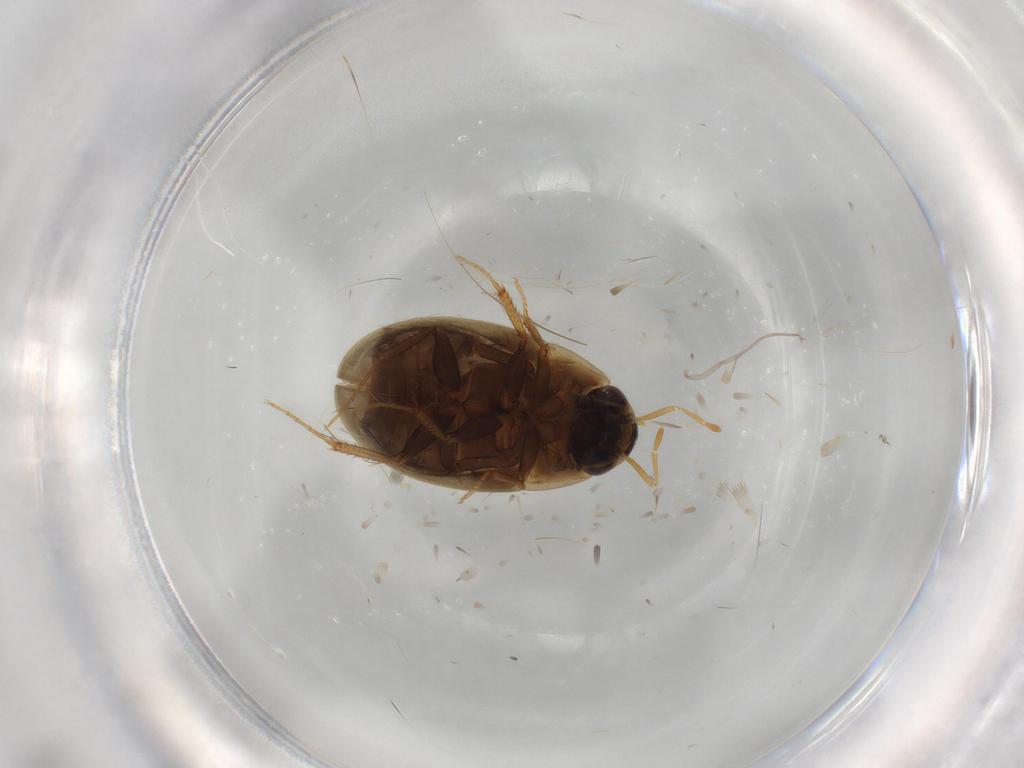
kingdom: Animalia
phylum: Arthropoda
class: Insecta
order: Coleoptera
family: Hydrophilidae
